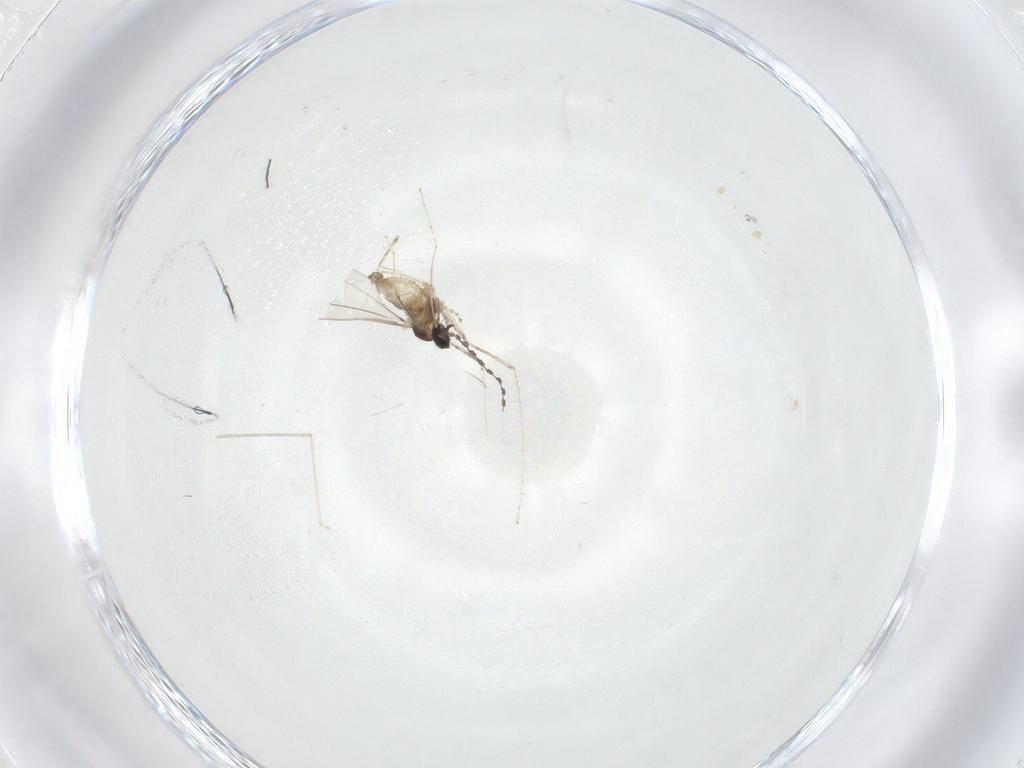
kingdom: Animalia
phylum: Arthropoda
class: Insecta
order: Diptera
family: Cecidomyiidae
